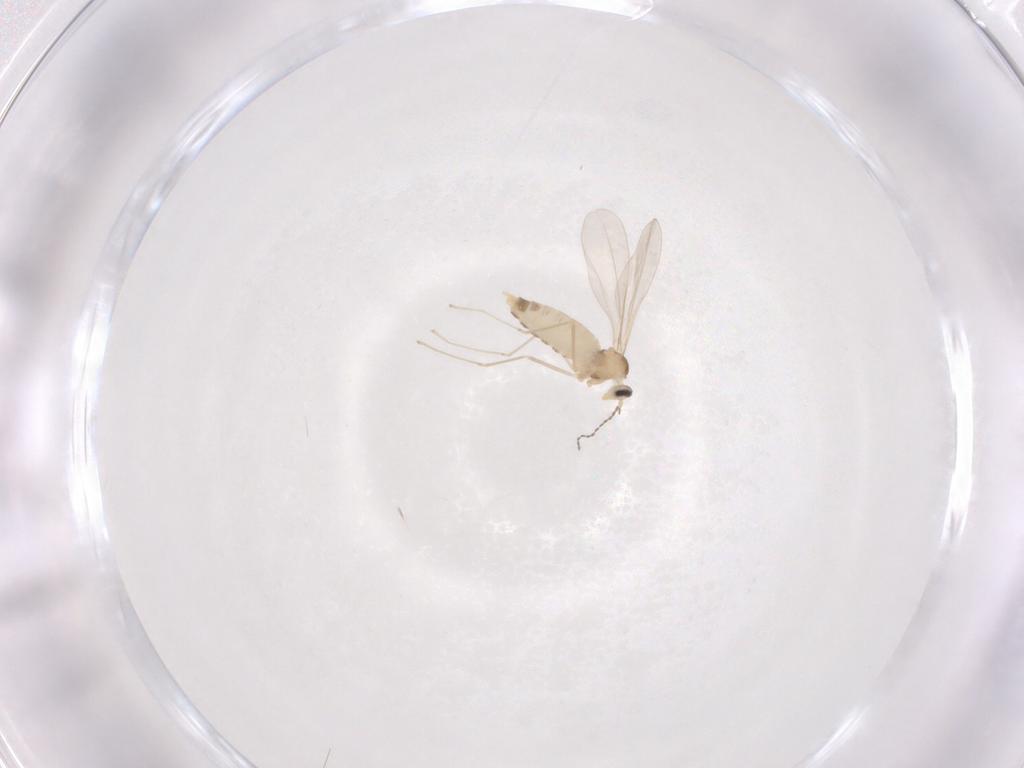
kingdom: Animalia
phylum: Arthropoda
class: Insecta
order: Diptera
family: Cecidomyiidae
